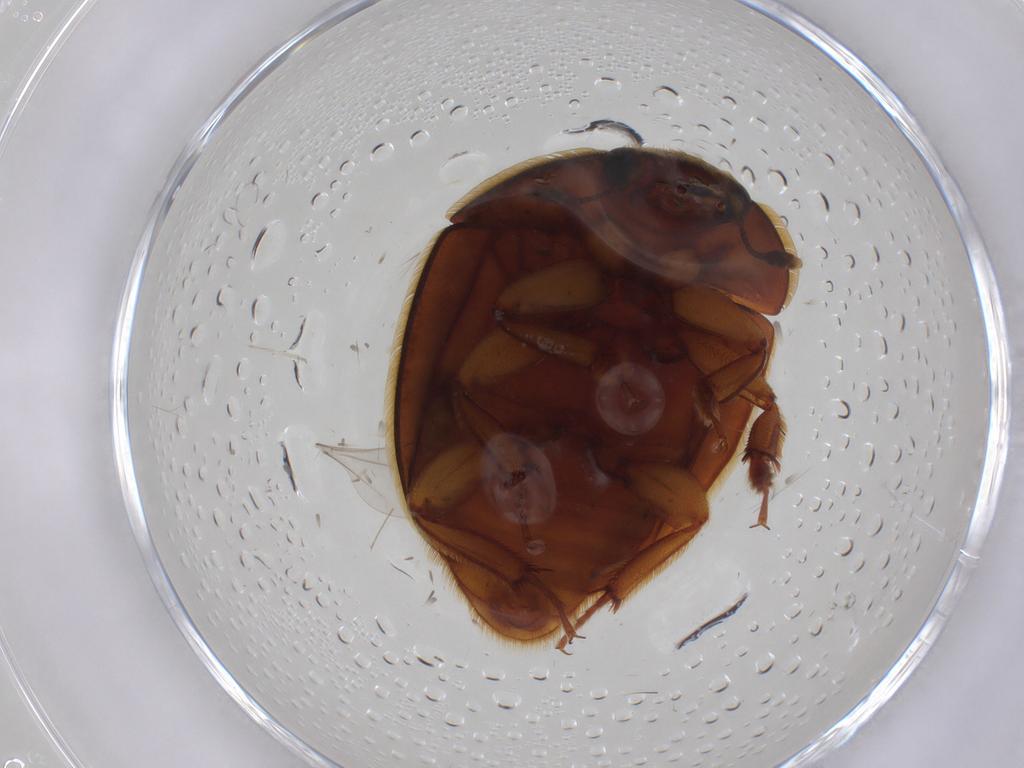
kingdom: Animalia
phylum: Arthropoda
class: Insecta
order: Coleoptera
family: Nitidulidae
